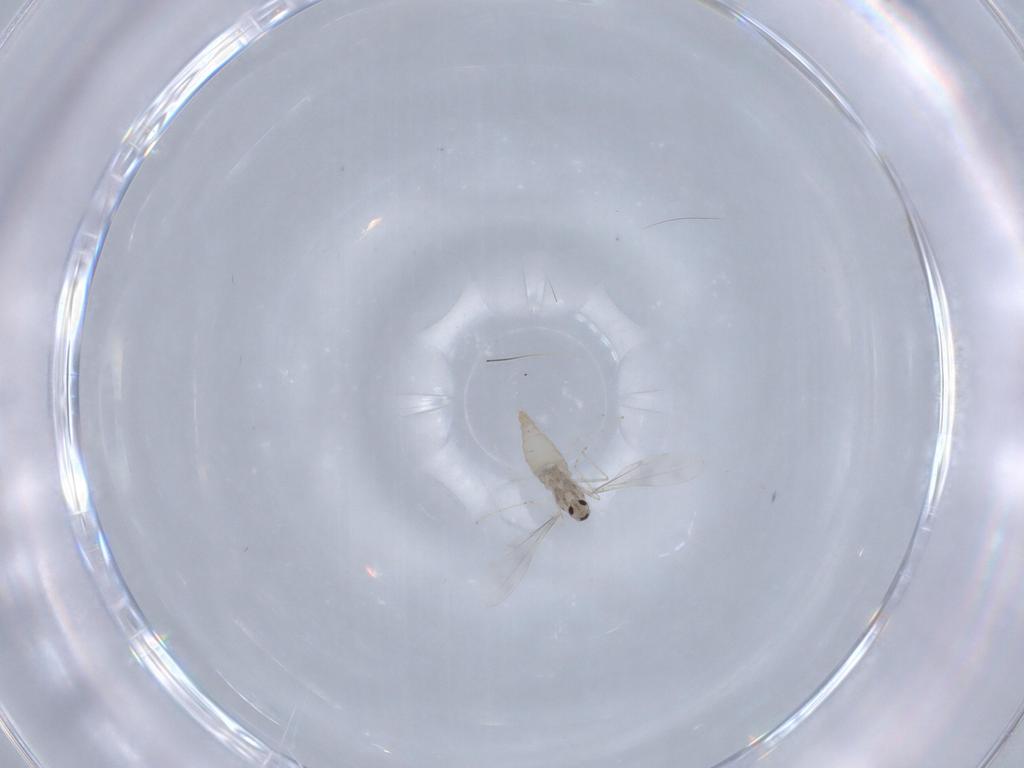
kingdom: Animalia
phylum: Arthropoda
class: Insecta
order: Diptera
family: Cecidomyiidae
